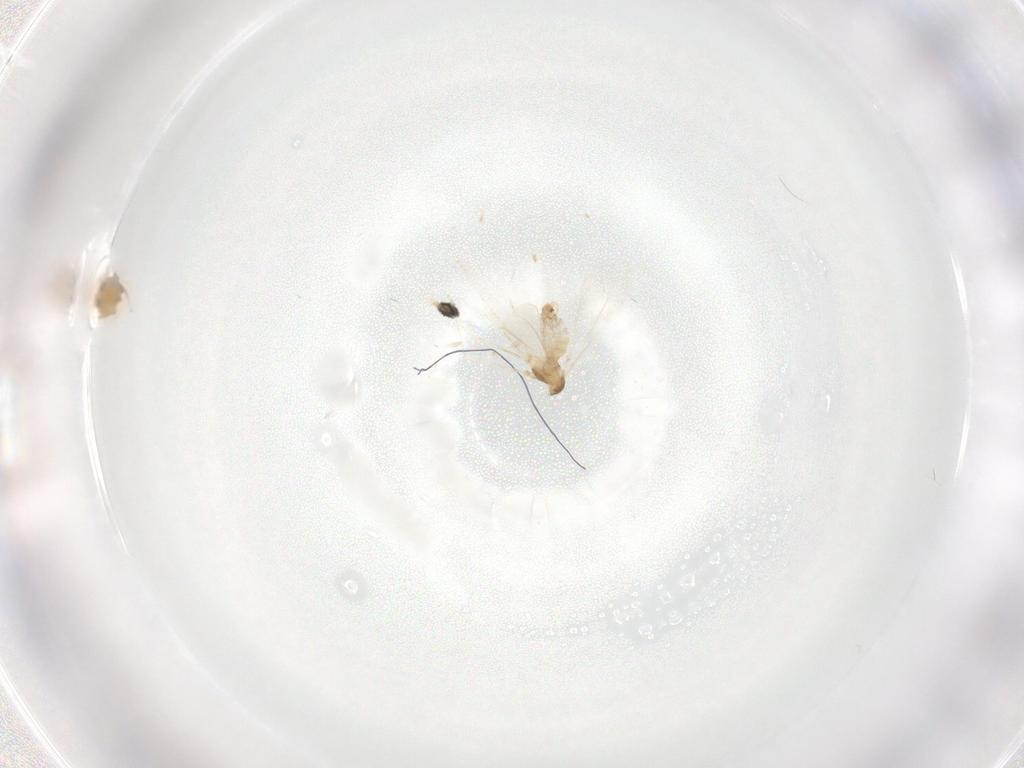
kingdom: Animalia
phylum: Arthropoda
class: Insecta
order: Diptera
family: Cecidomyiidae
